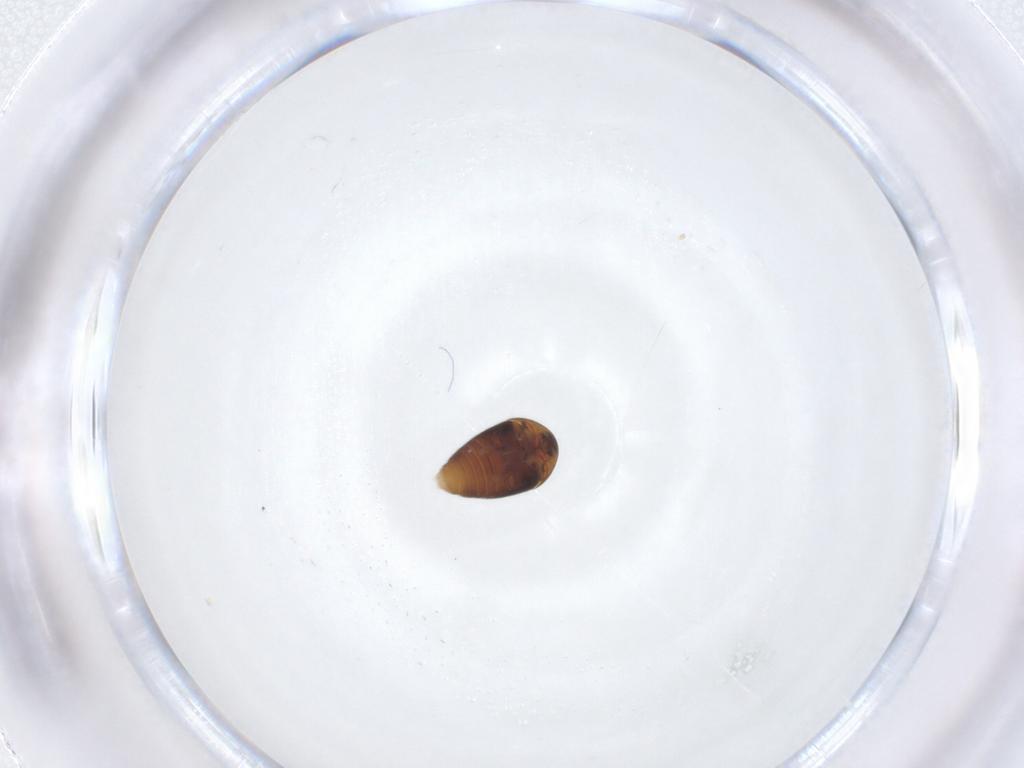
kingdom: Animalia
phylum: Arthropoda
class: Insecta
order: Coleoptera
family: Corylophidae
